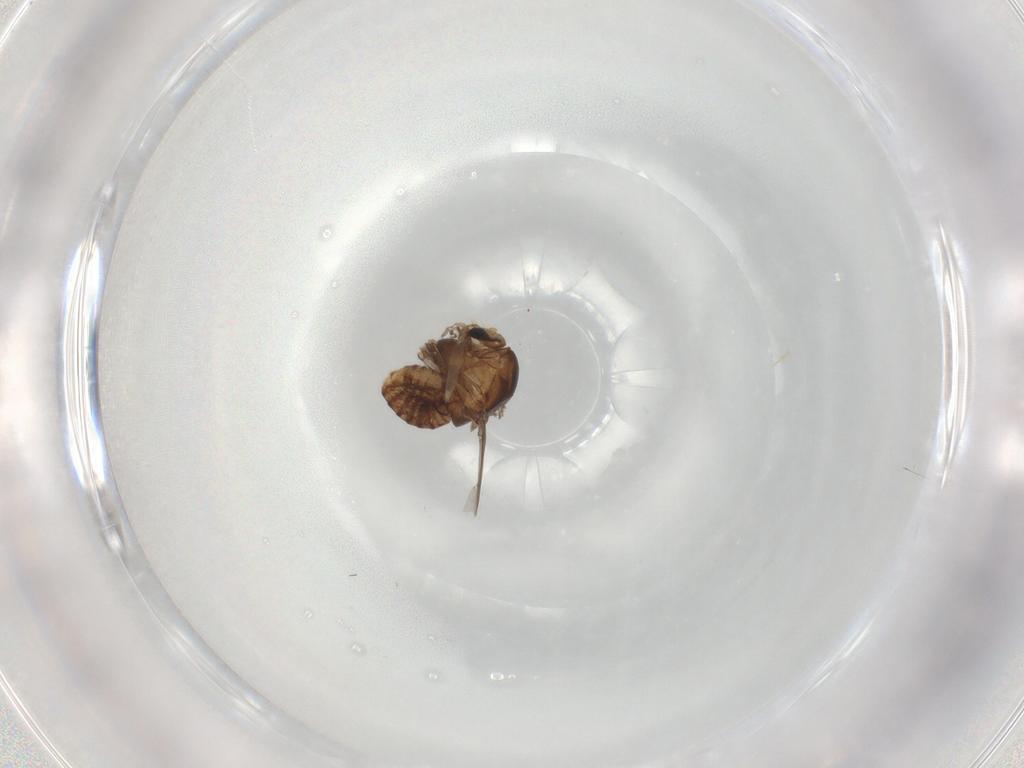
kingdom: Animalia
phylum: Arthropoda
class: Insecta
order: Diptera
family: Chironomidae
